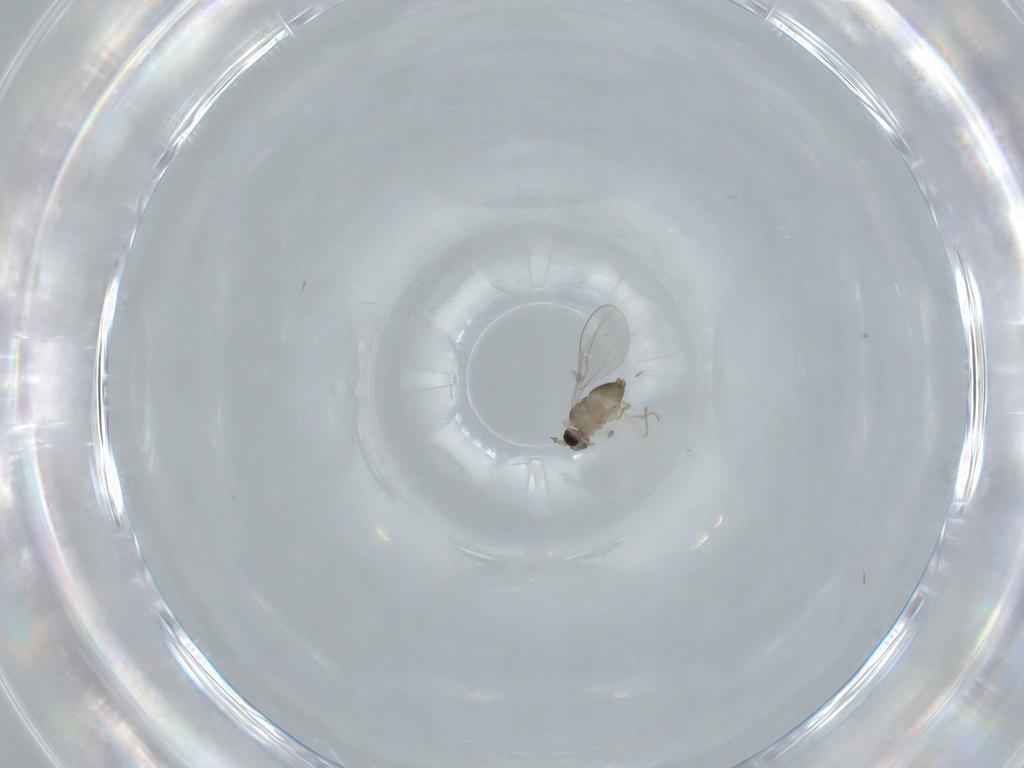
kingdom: Animalia
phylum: Arthropoda
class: Insecta
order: Diptera
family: Cecidomyiidae
